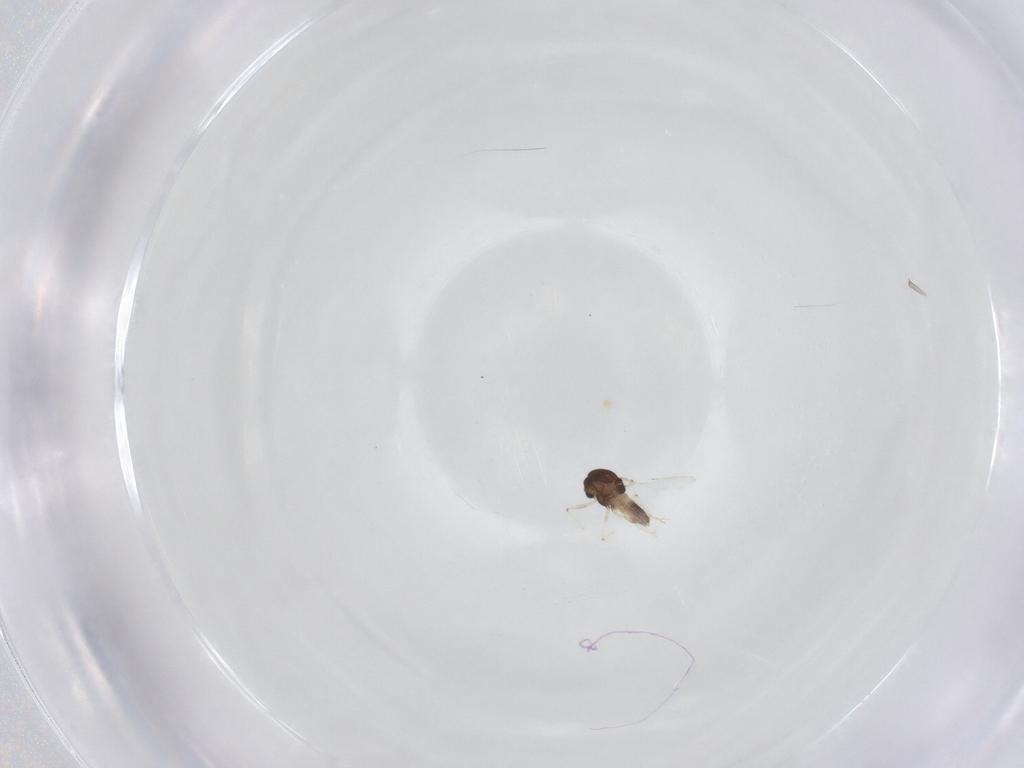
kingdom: Animalia
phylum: Arthropoda
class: Insecta
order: Diptera
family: Chironomidae
